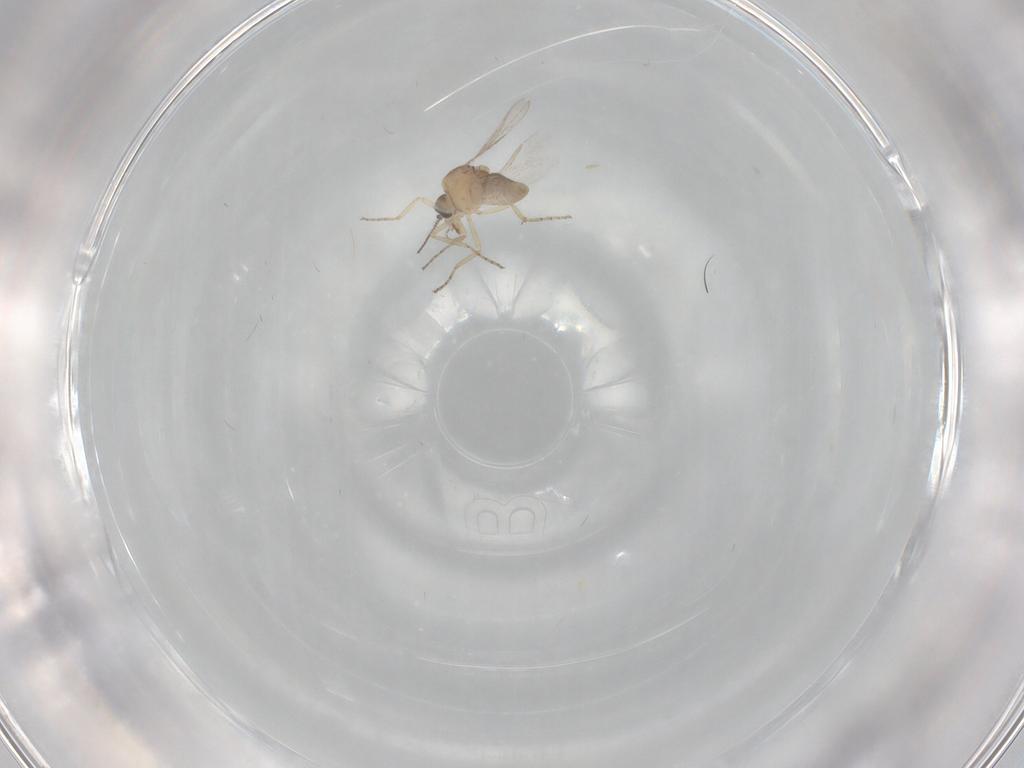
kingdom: Animalia
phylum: Arthropoda
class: Insecta
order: Diptera
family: Ceratopogonidae
